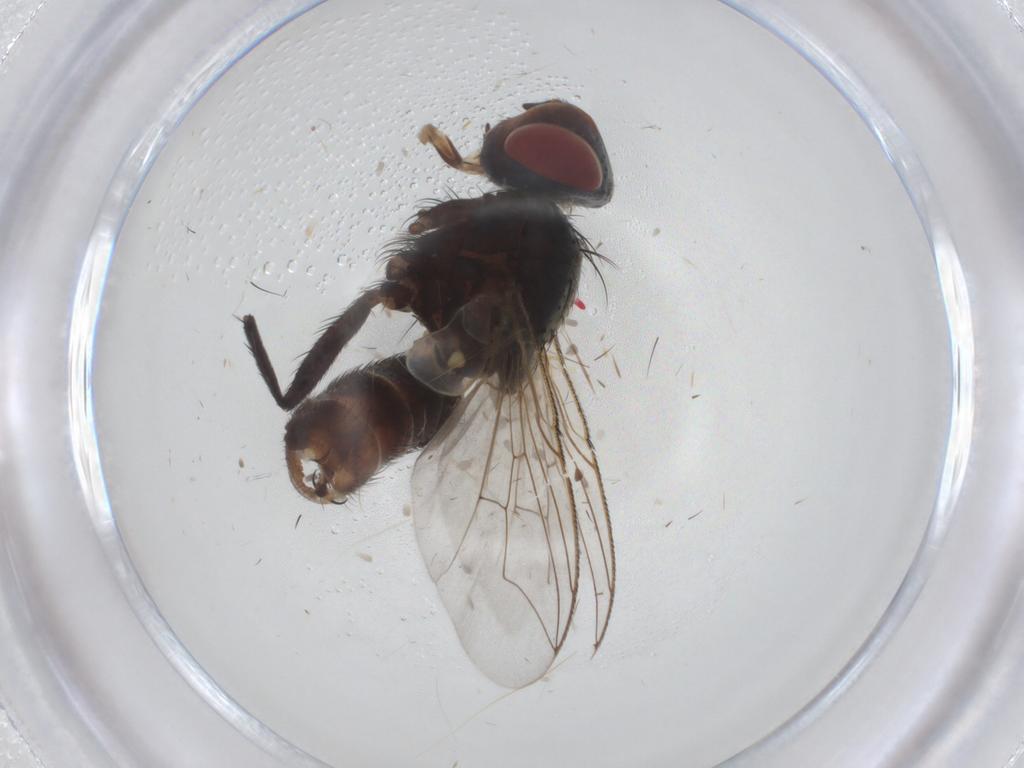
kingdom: Animalia
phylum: Arthropoda
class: Insecta
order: Diptera
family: Sarcophagidae
